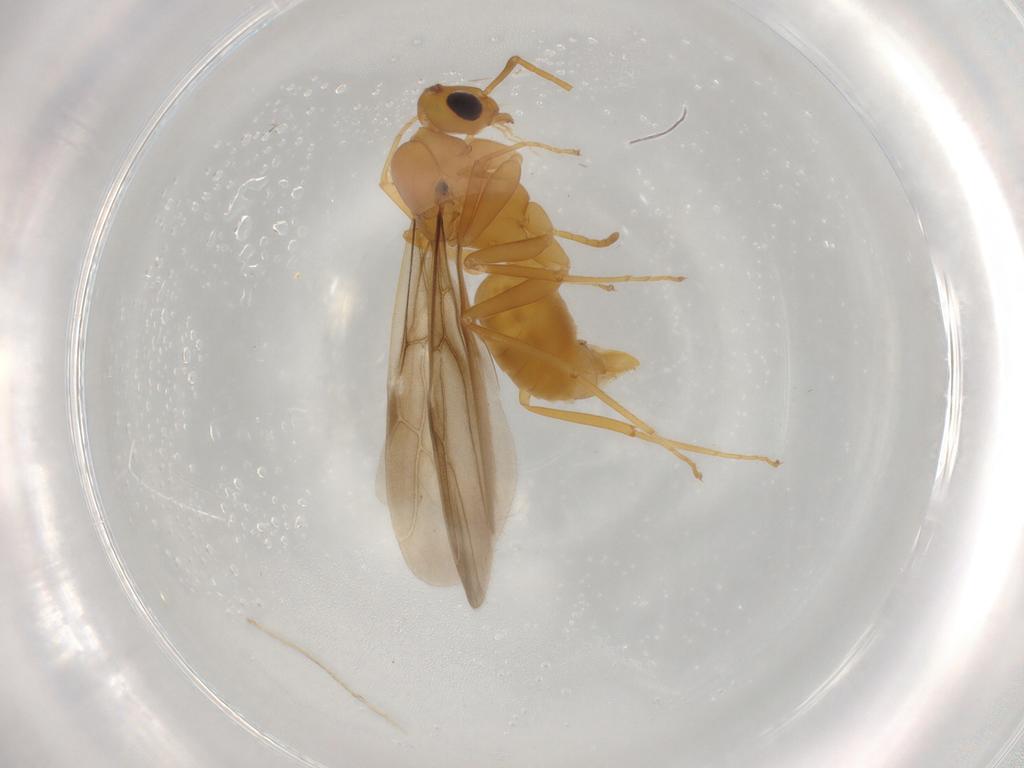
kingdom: Animalia
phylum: Arthropoda
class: Insecta
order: Hymenoptera
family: Formicidae
